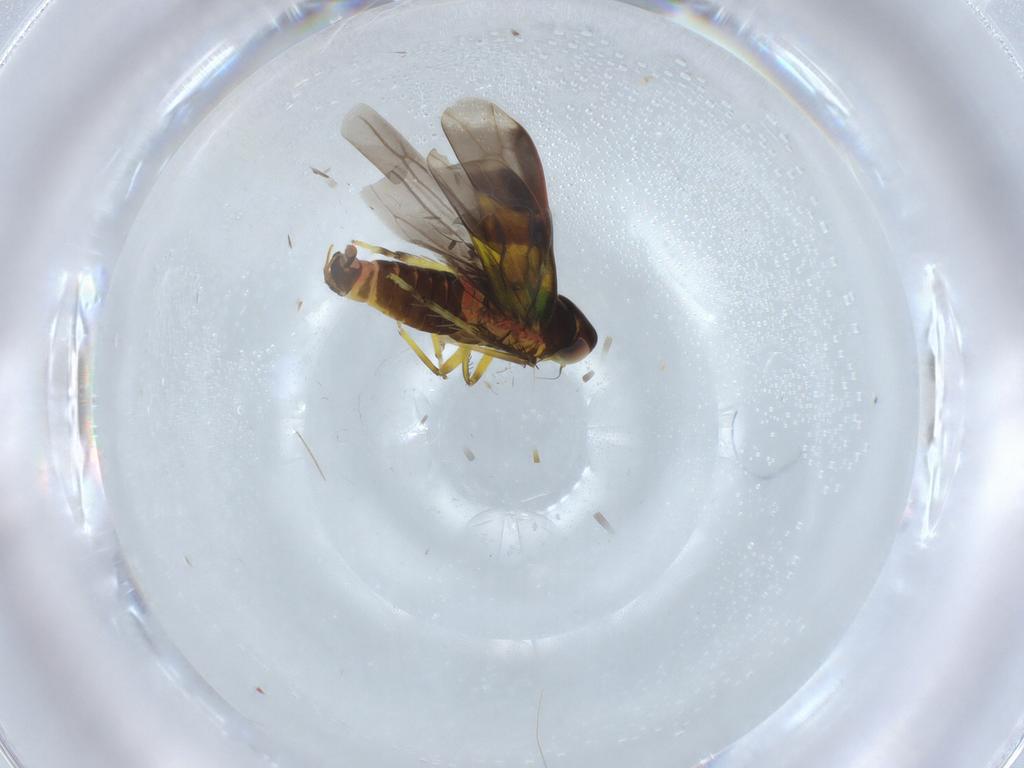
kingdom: Animalia
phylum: Arthropoda
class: Insecta
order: Hemiptera
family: Cicadellidae
